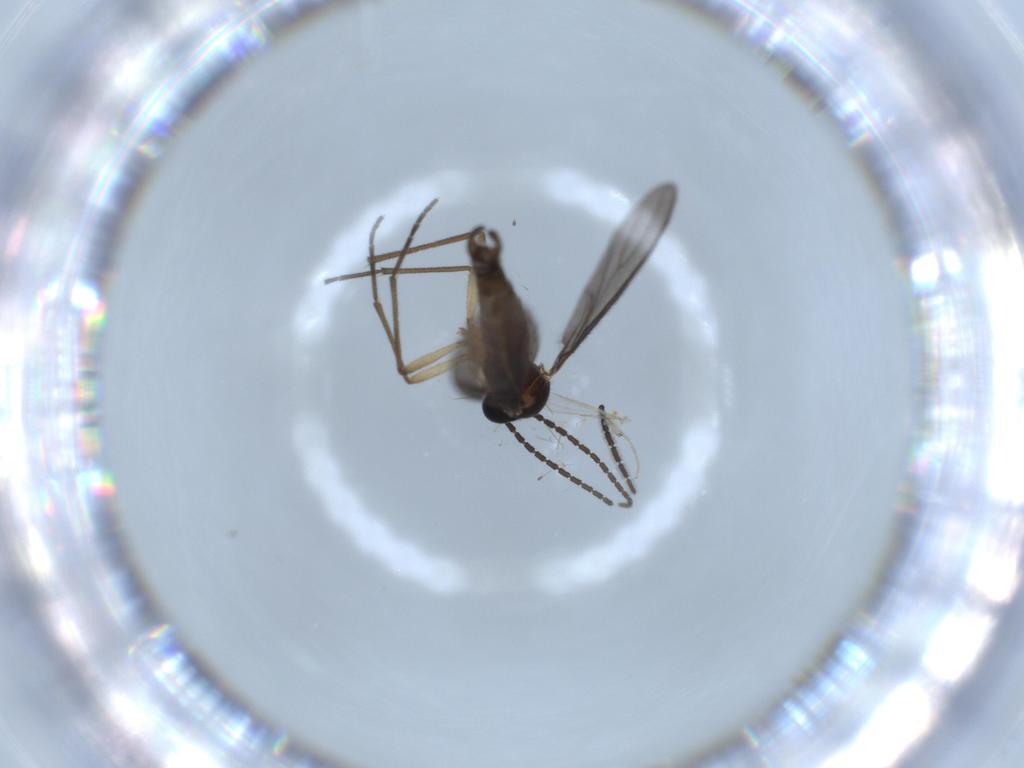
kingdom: Animalia
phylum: Arthropoda
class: Insecta
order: Diptera
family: Sciaridae
